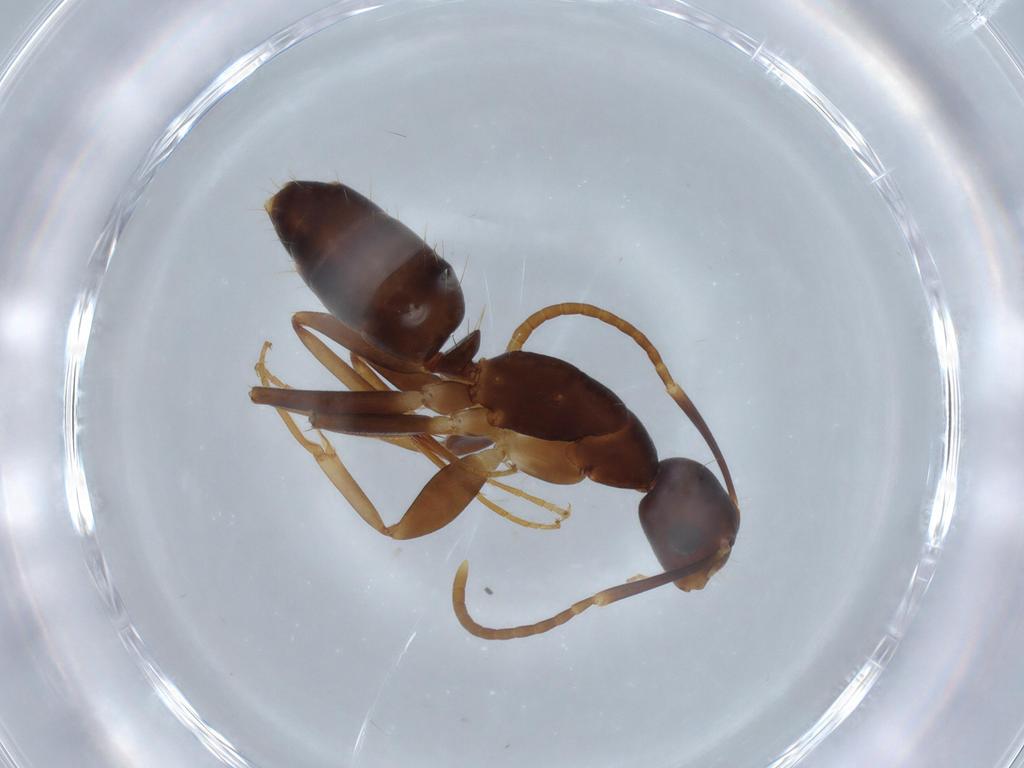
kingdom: Animalia
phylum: Arthropoda
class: Insecta
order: Hymenoptera
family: Formicidae
